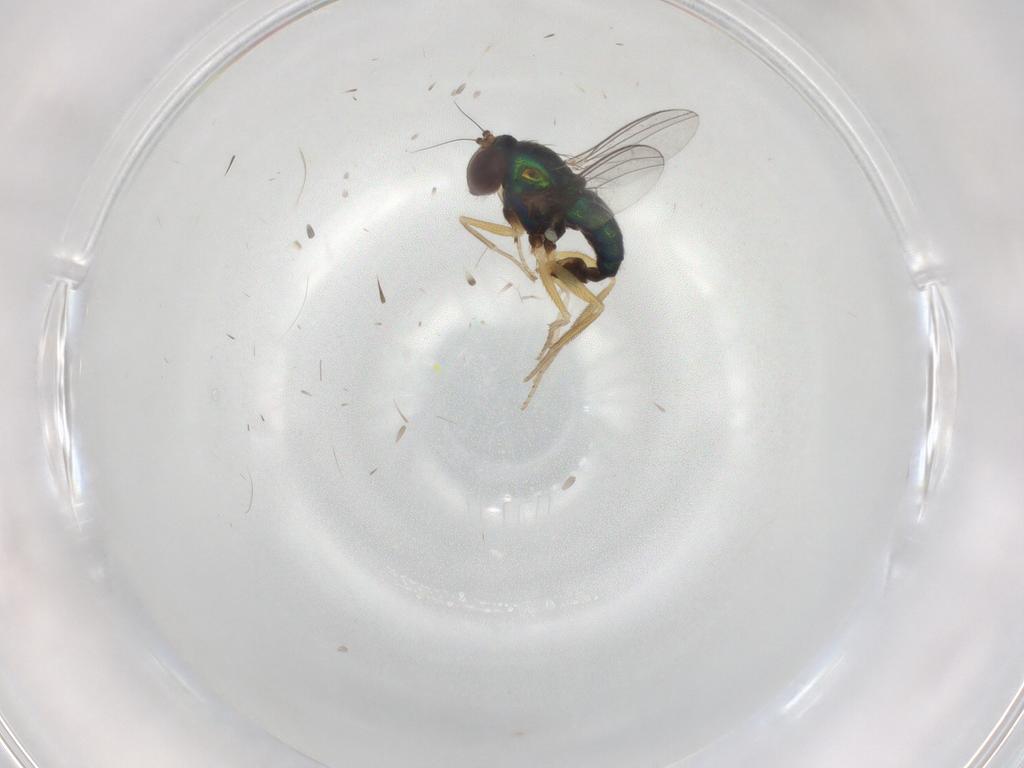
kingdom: Animalia
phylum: Arthropoda
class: Insecta
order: Diptera
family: Dolichopodidae
